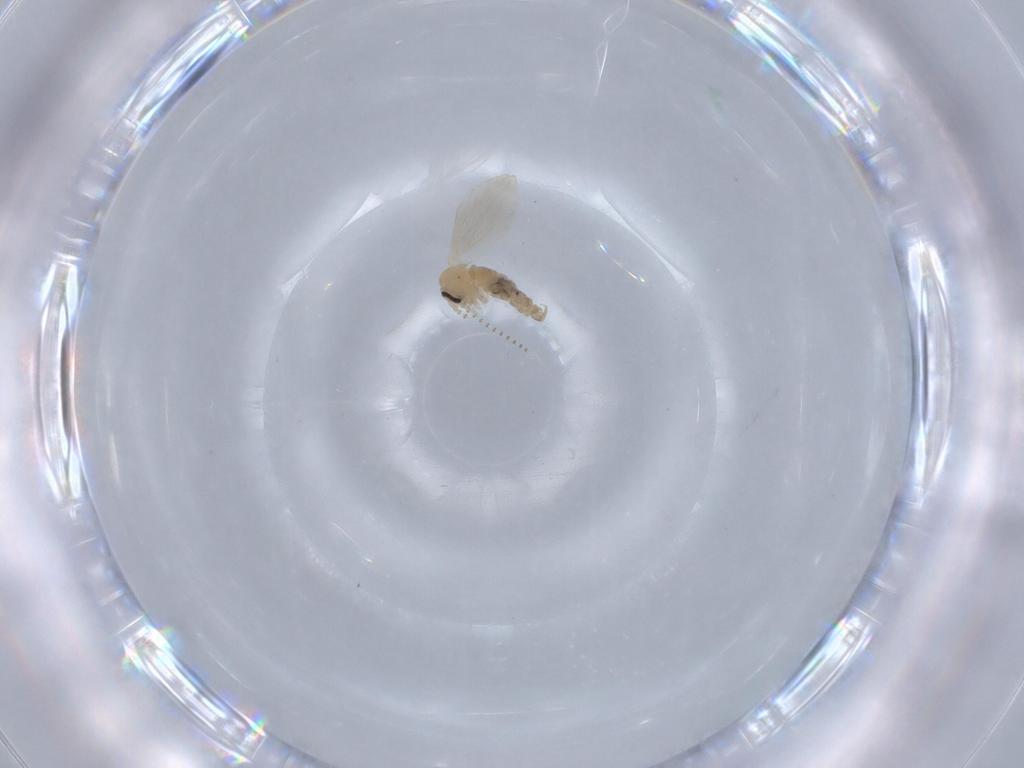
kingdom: Animalia
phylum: Arthropoda
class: Insecta
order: Diptera
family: Psychodidae
